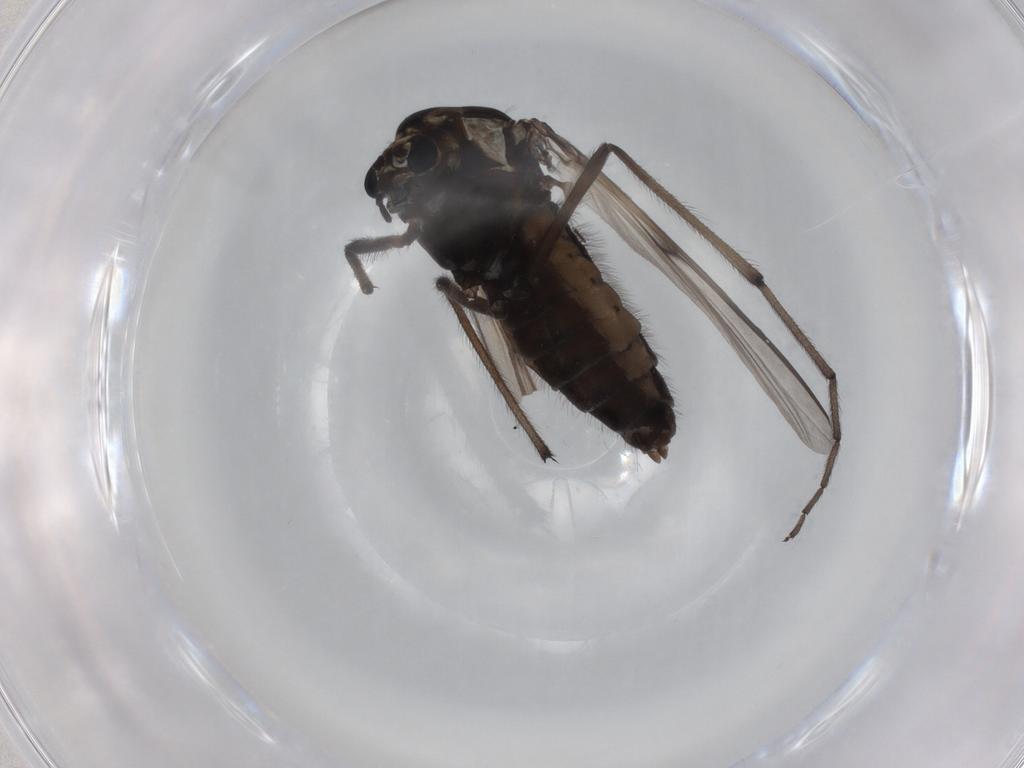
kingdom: Animalia
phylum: Arthropoda
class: Insecta
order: Diptera
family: Chironomidae
